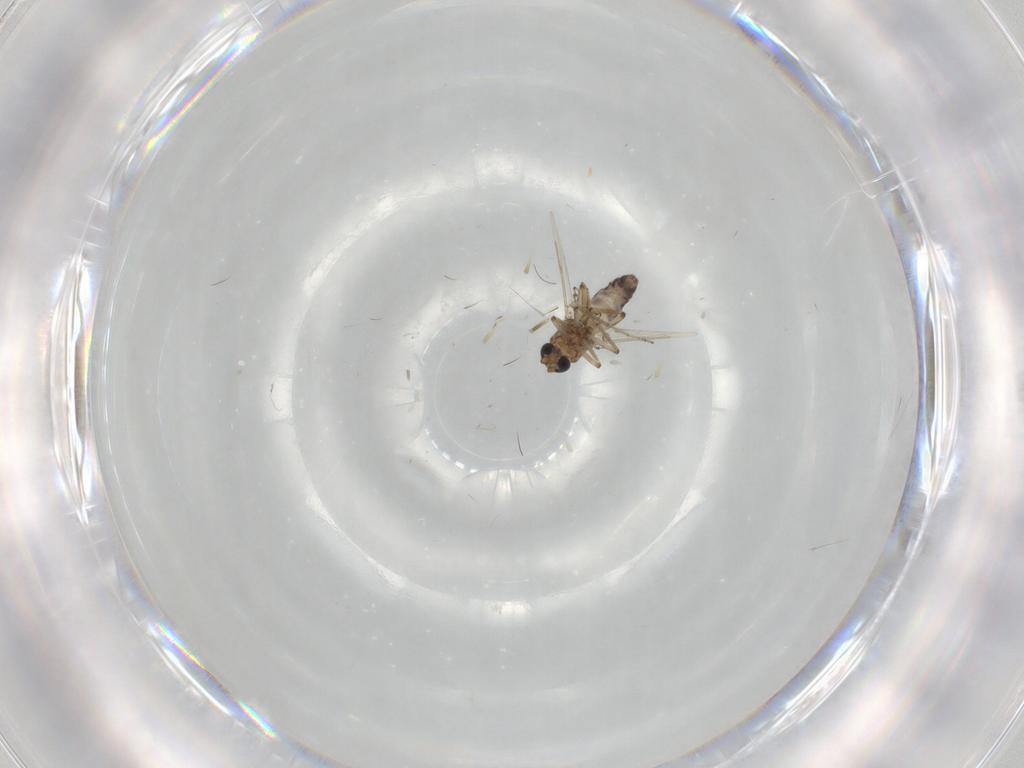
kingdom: Animalia
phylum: Arthropoda
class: Insecta
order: Diptera
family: Ceratopogonidae
